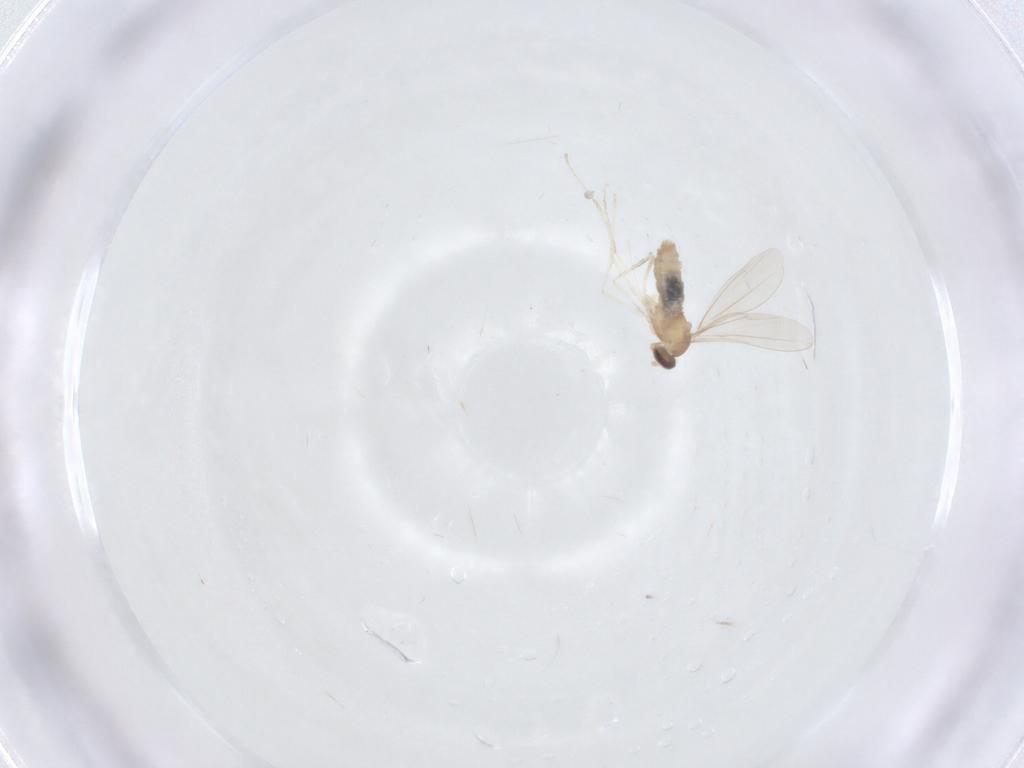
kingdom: Animalia
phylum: Arthropoda
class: Insecta
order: Diptera
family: Cecidomyiidae
